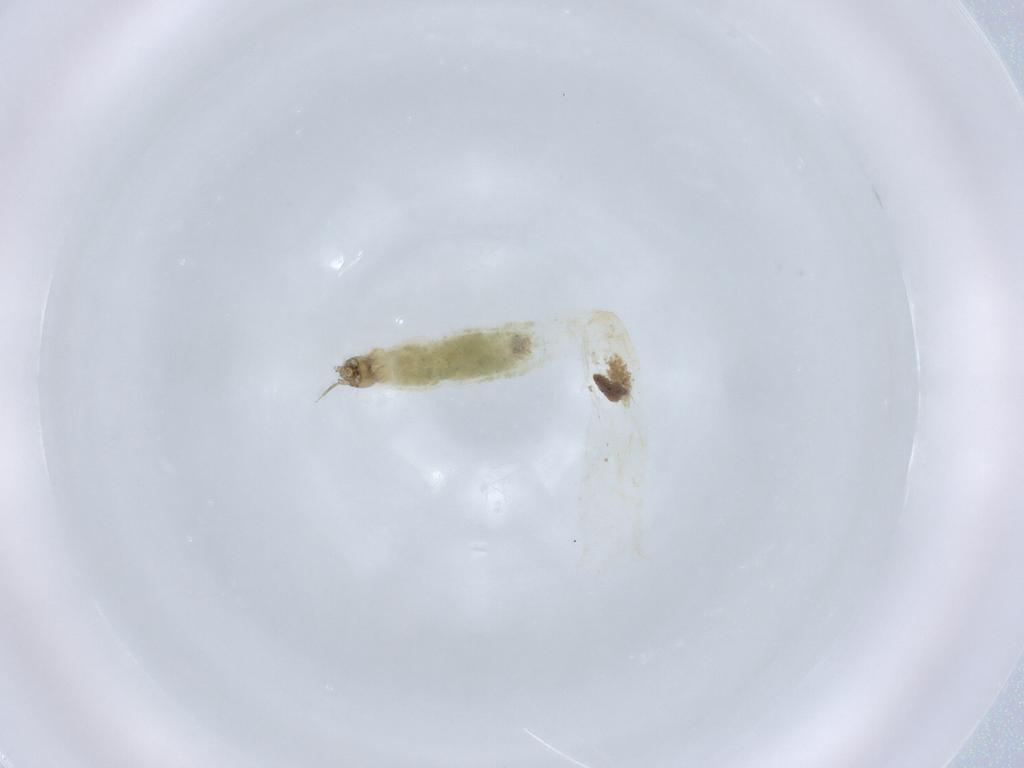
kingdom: Animalia
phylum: Arthropoda
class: Insecta
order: Diptera
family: Chironomidae
